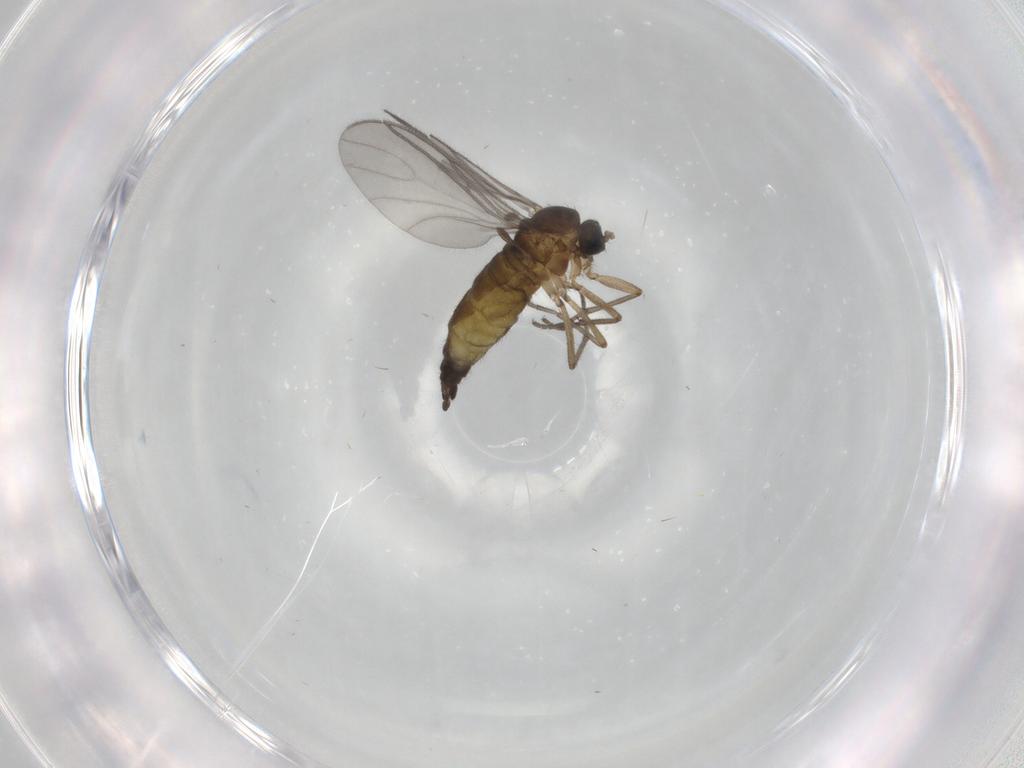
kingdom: Animalia
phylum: Arthropoda
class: Insecta
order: Diptera
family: Sciaridae
